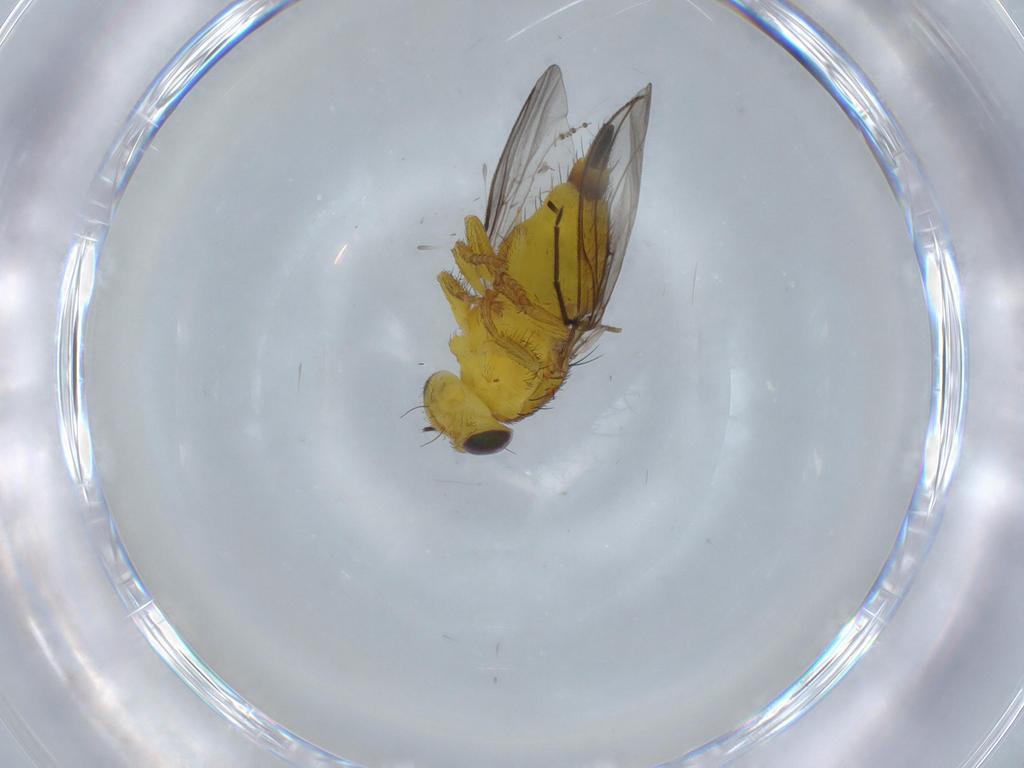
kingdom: Animalia
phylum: Arthropoda
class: Insecta
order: Diptera
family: Fergusoninidae
